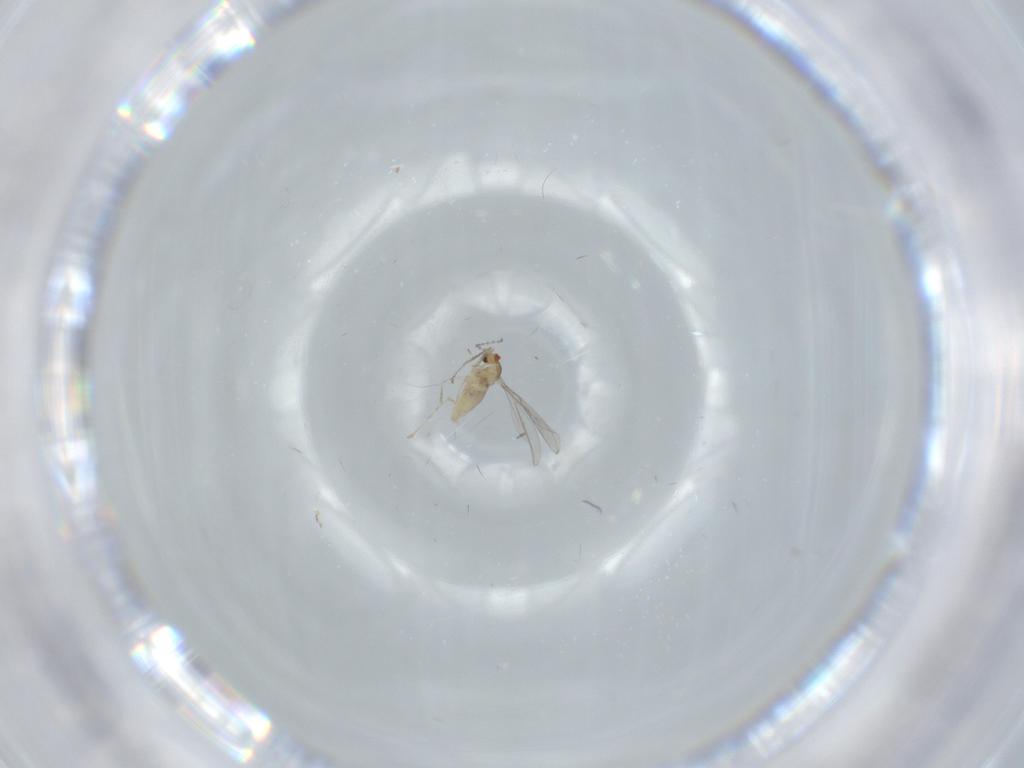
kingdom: Animalia
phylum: Arthropoda
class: Insecta
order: Diptera
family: Cecidomyiidae
